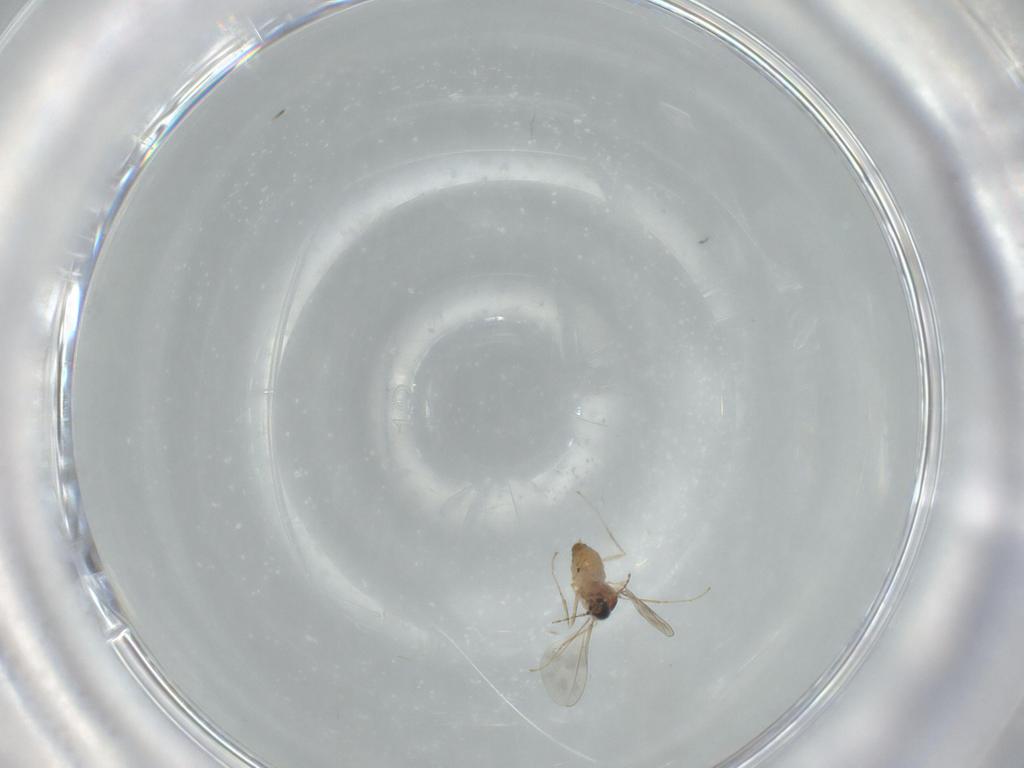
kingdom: Animalia
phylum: Arthropoda
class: Insecta
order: Diptera
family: Cecidomyiidae
